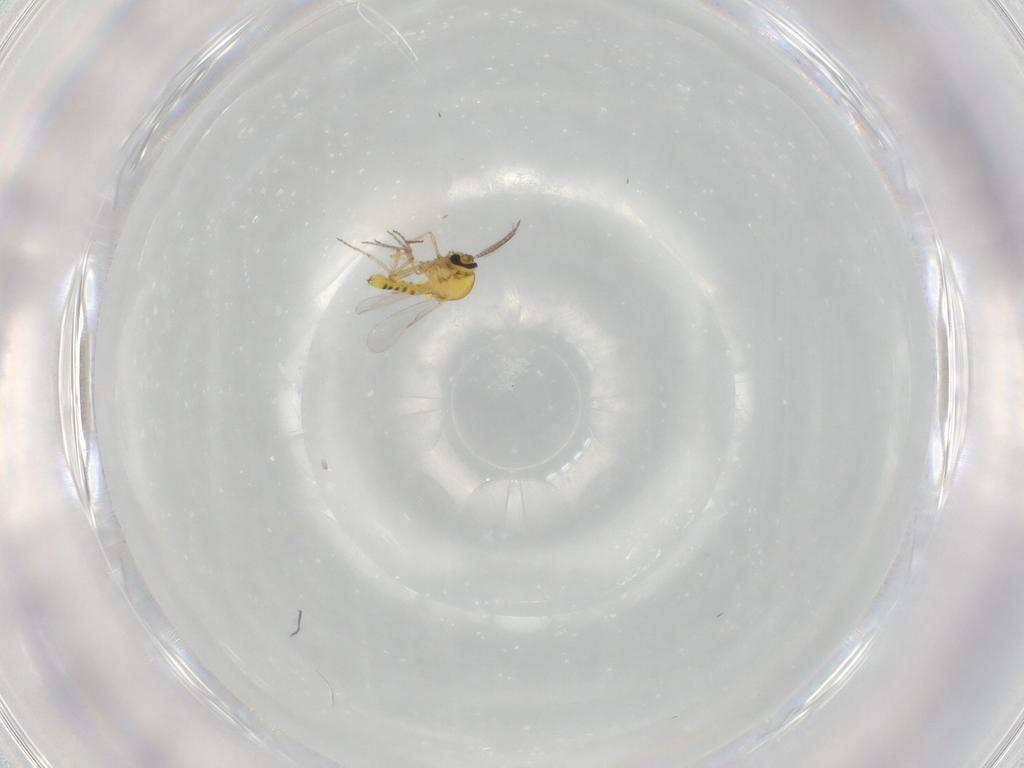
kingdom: Animalia
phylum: Arthropoda
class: Insecta
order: Diptera
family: Ceratopogonidae
